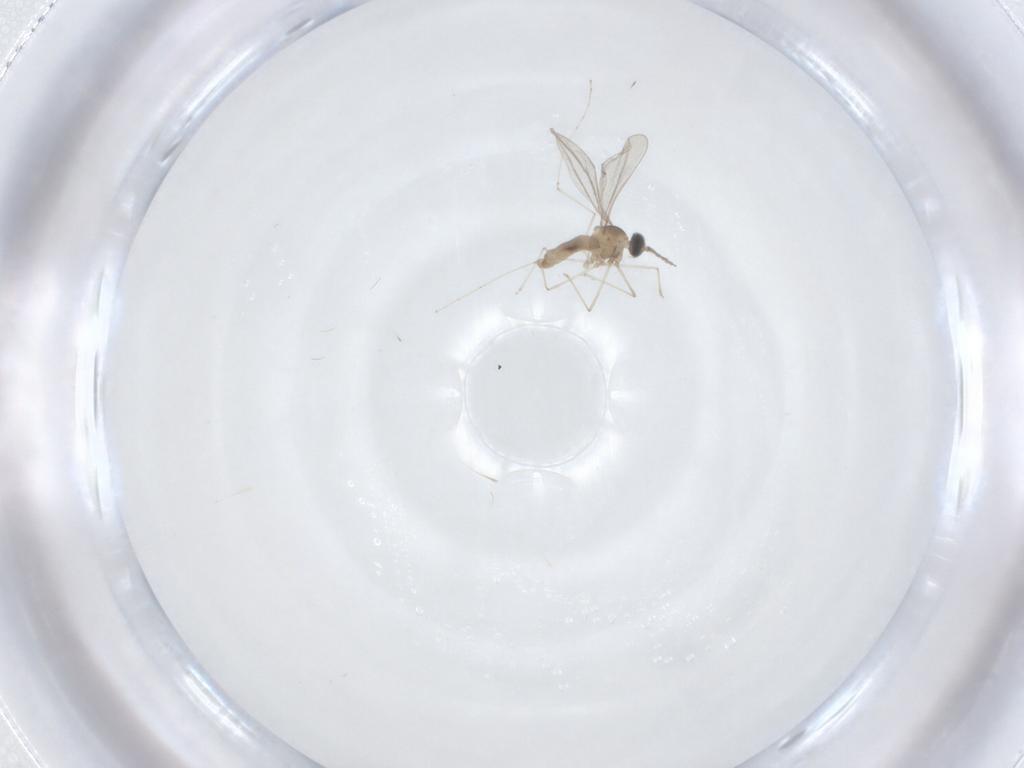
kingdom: Animalia
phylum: Arthropoda
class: Insecta
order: Diptera
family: Cecidomyiidae
